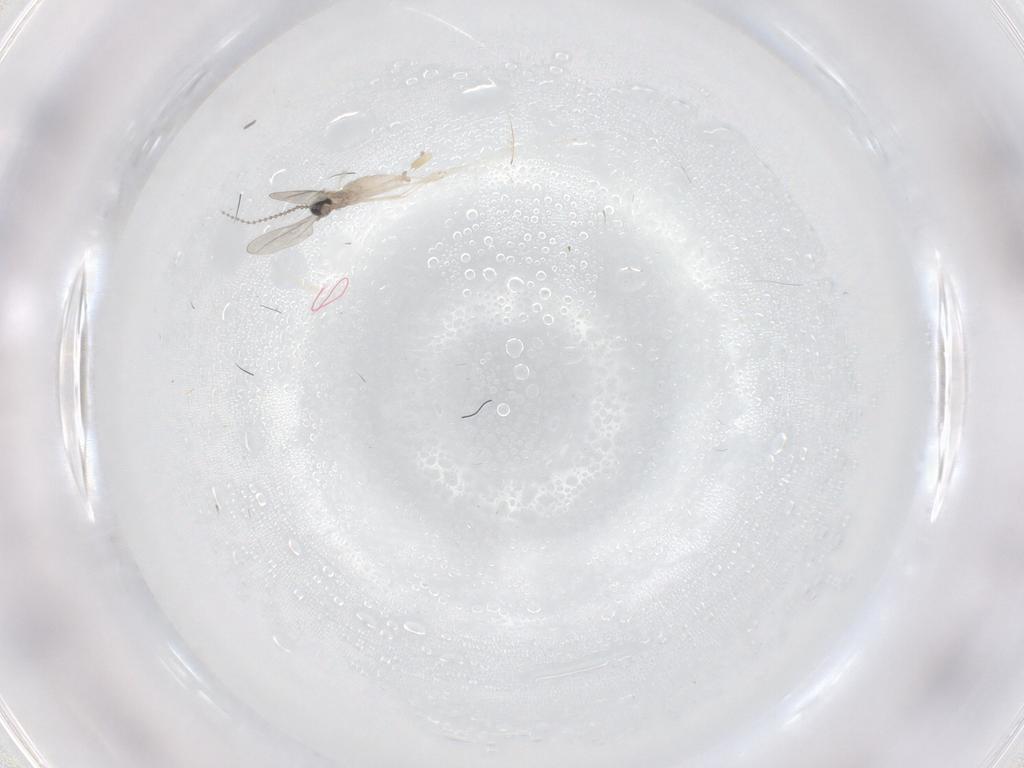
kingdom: Animalia
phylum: Arthropoda
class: Insecta
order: Diptera
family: Cecidomyiidae
